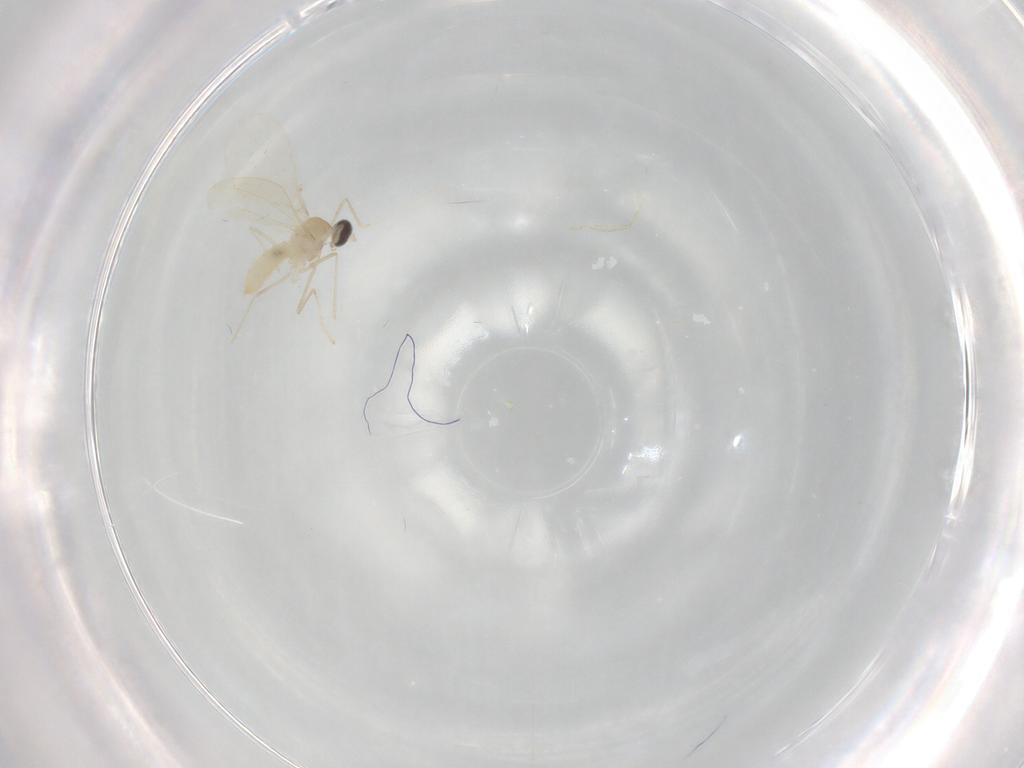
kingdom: Animalia
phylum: Arthropoda
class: Insecta
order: Diptera
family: Cecidomyiidae
